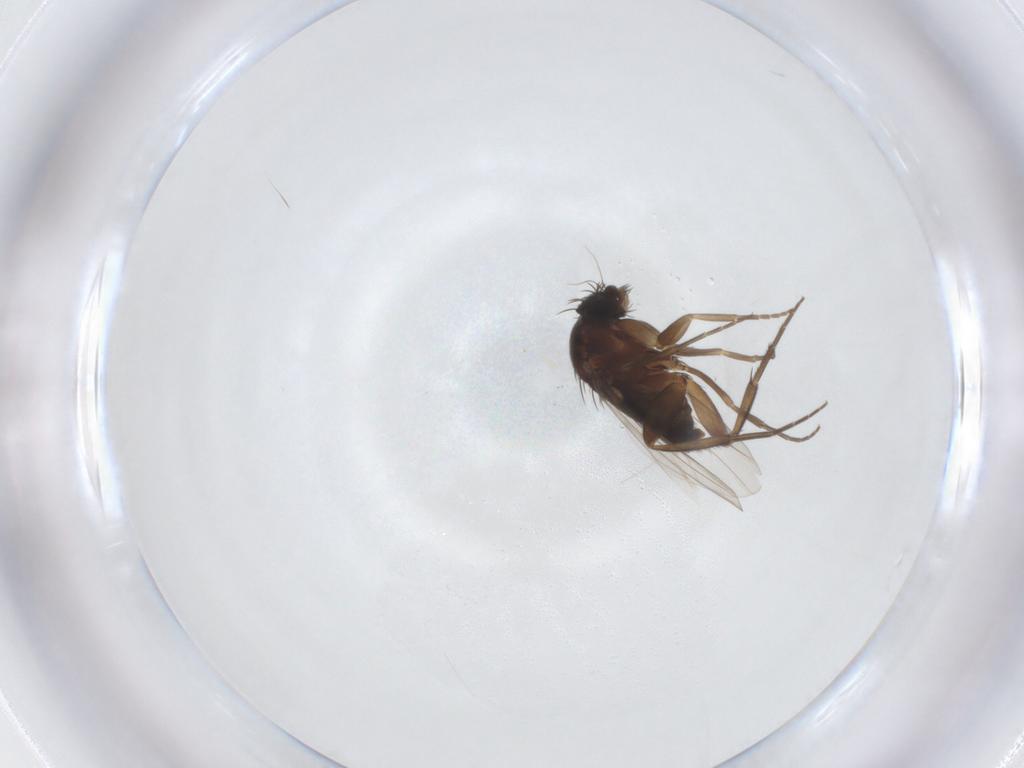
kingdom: Animalia
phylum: Arthropoda
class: Insecta
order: Diptera
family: Phoridae
